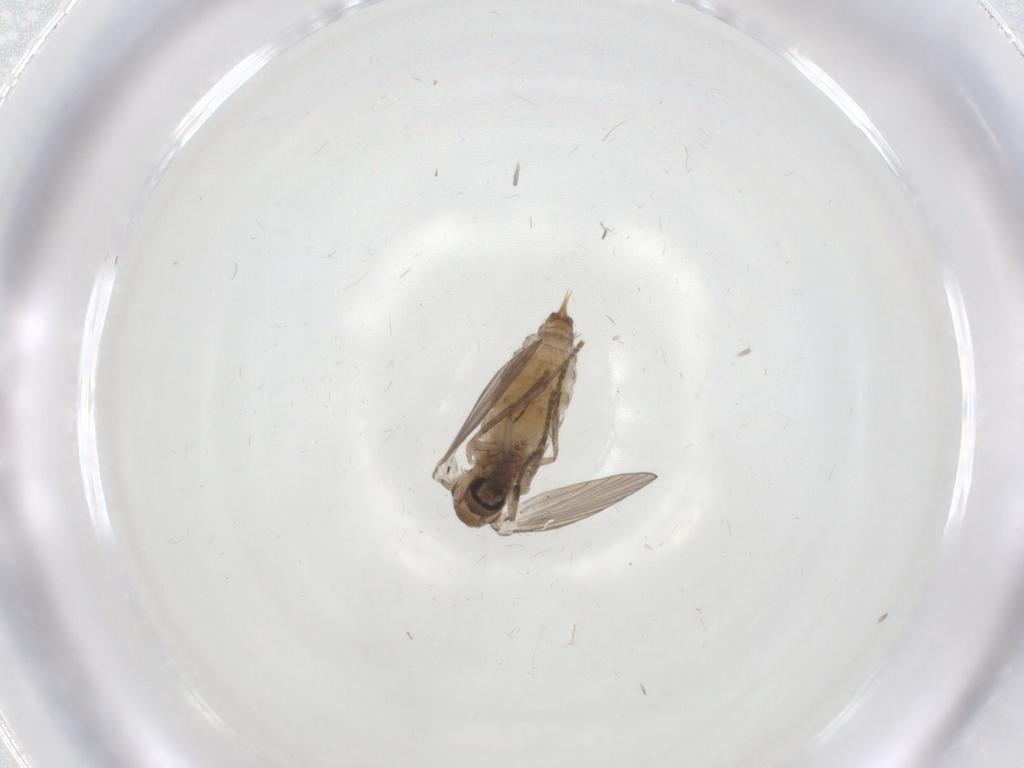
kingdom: Animalia
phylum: Arthropoda
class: Insecta
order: Diptera
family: Psychodidae
